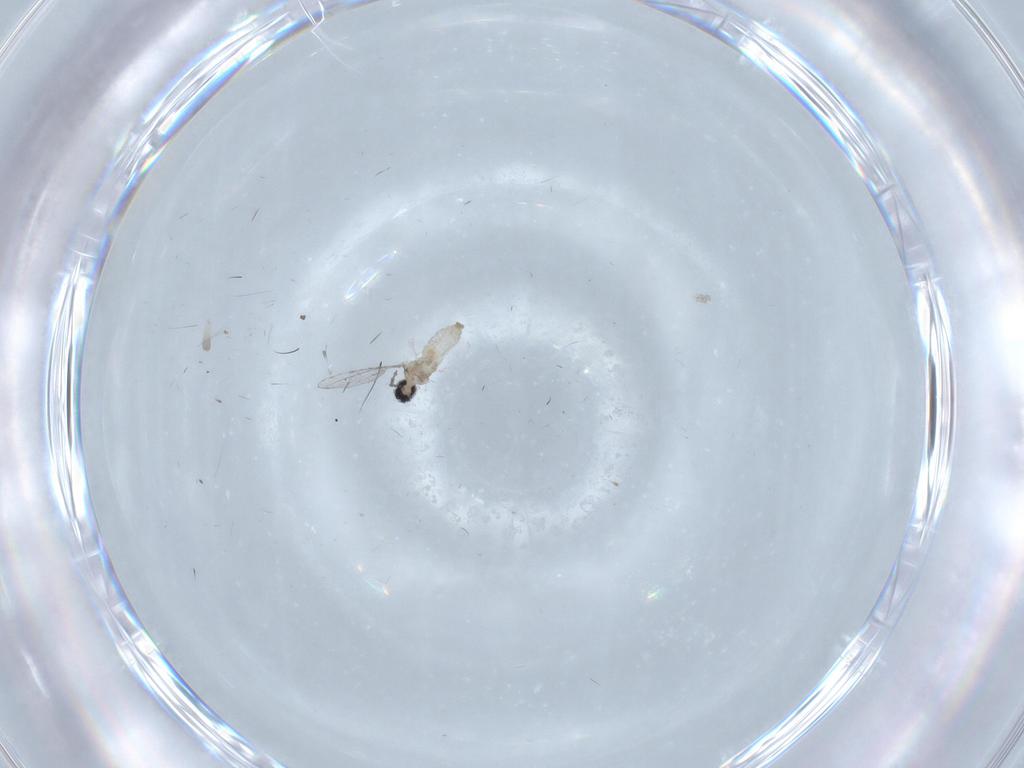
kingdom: Animalia
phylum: Arthropoda
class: Insecta
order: Diptera
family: Cecidomyiidae
